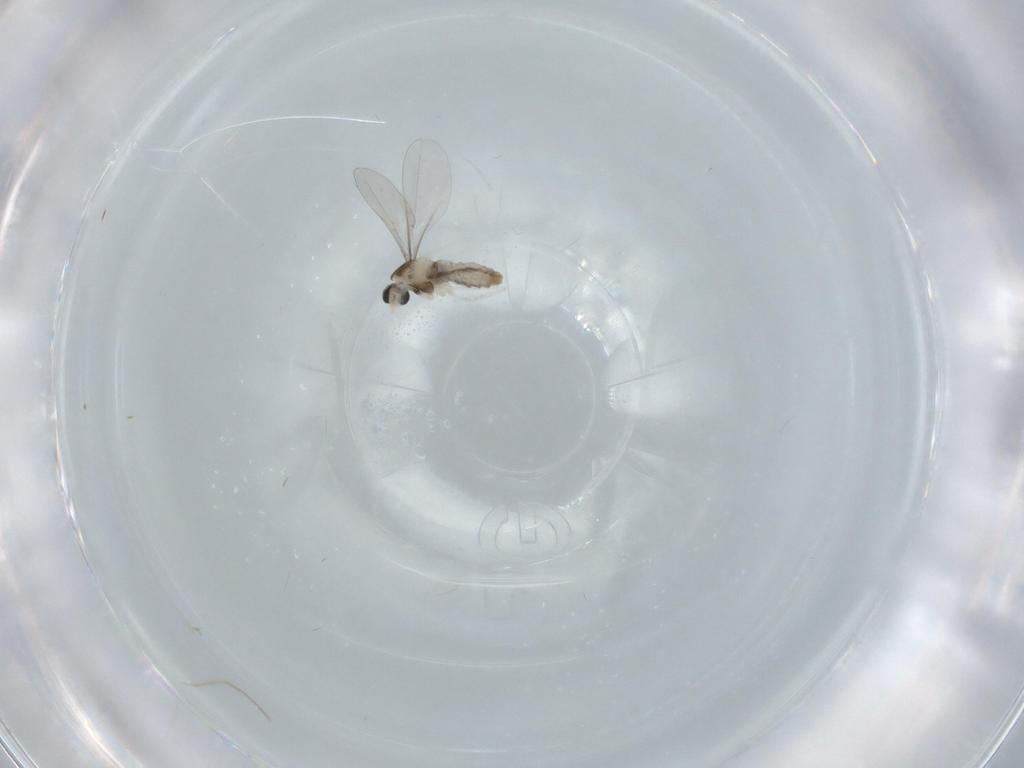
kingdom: Animalia
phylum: Arthropoda
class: Insecta
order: Diptera
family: Cecidomyiidae
